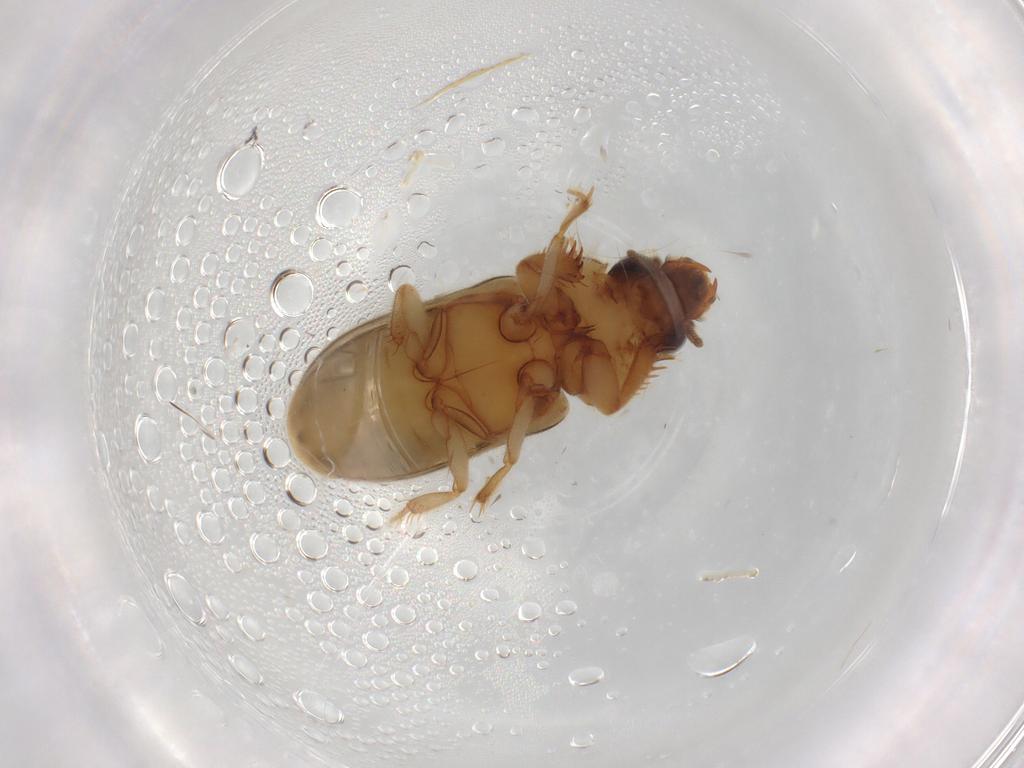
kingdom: Animalia
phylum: Arthropoda
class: Insecta
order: Coleoptera
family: Heteroceridae
